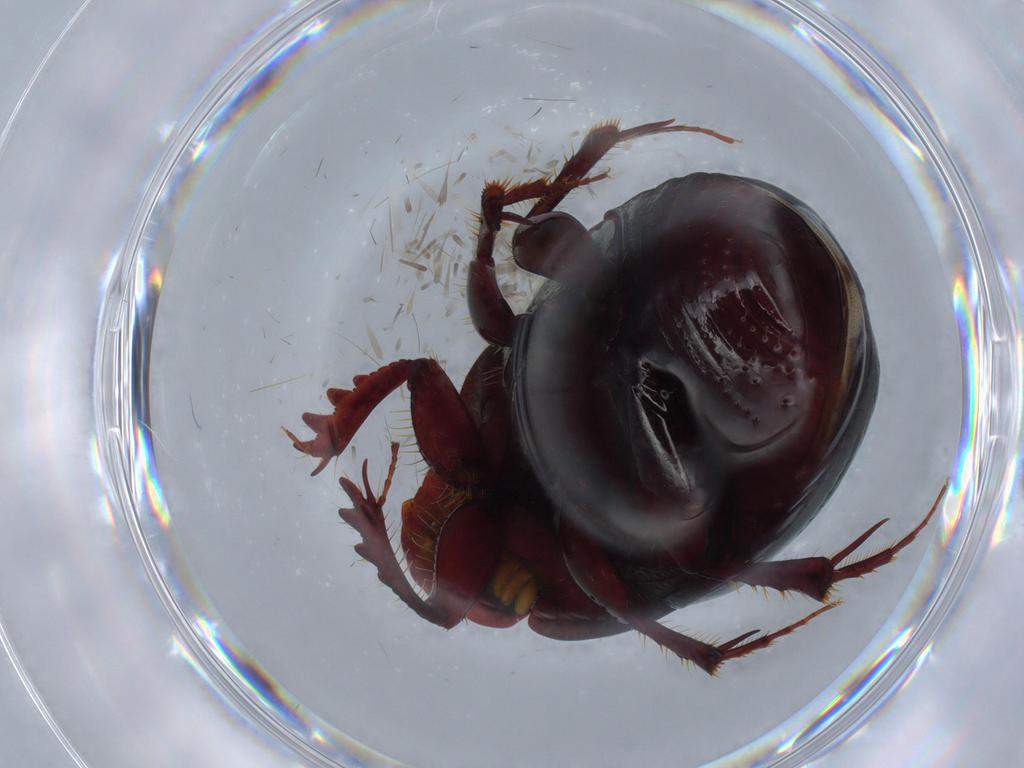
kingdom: Animalia
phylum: Arthropoda
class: Insecta
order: Coleoptera
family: Scarabaeidae
